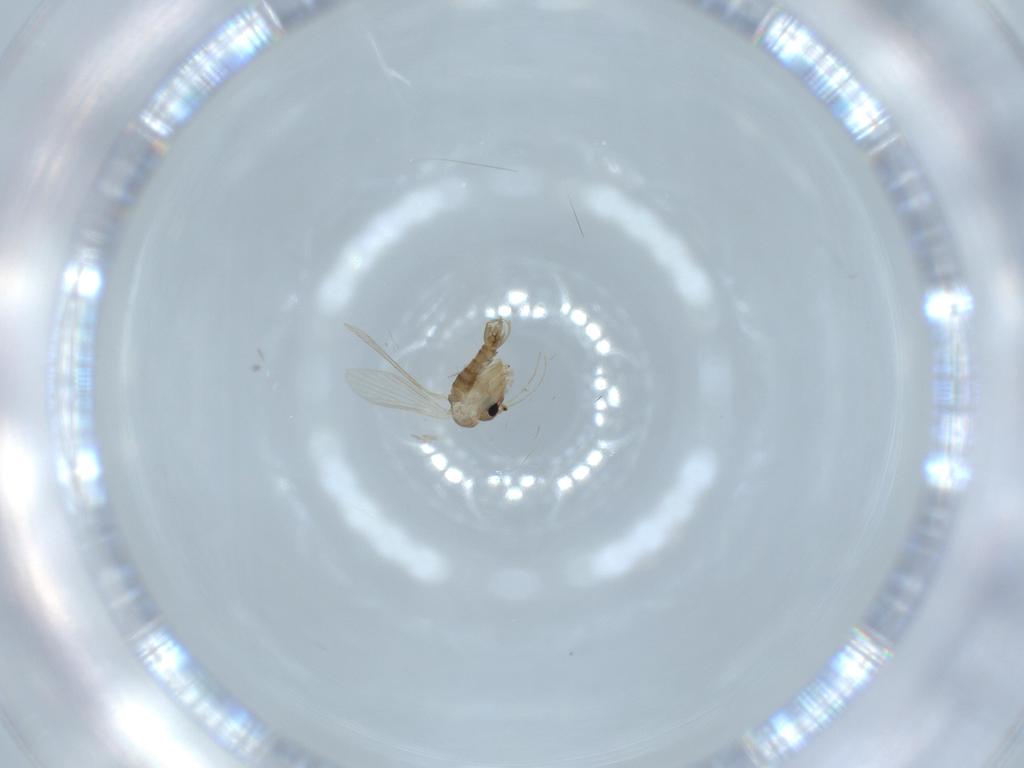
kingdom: Animalia
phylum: Arthropoda
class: Insecta
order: Diptera
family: Psychodidae
